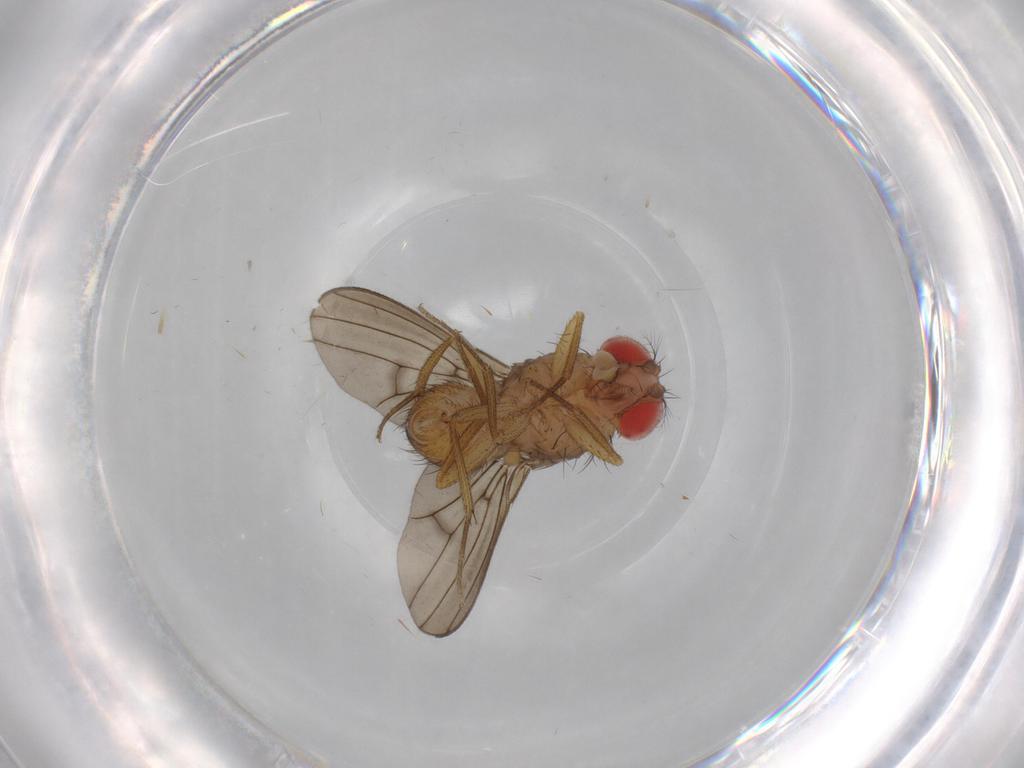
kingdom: Animalia
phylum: Arthropoda
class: Insecta
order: Diptera
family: Drosophilidae
